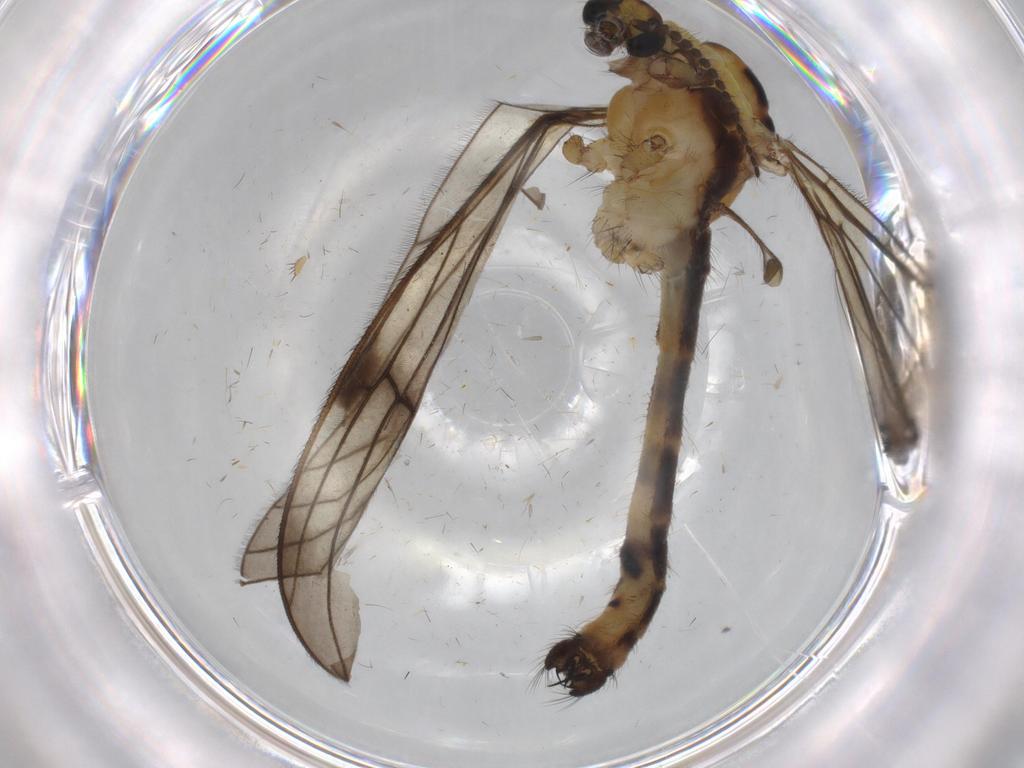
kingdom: Animalia
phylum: Arthropoda
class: Insecta
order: Diptera
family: Limoniidae
